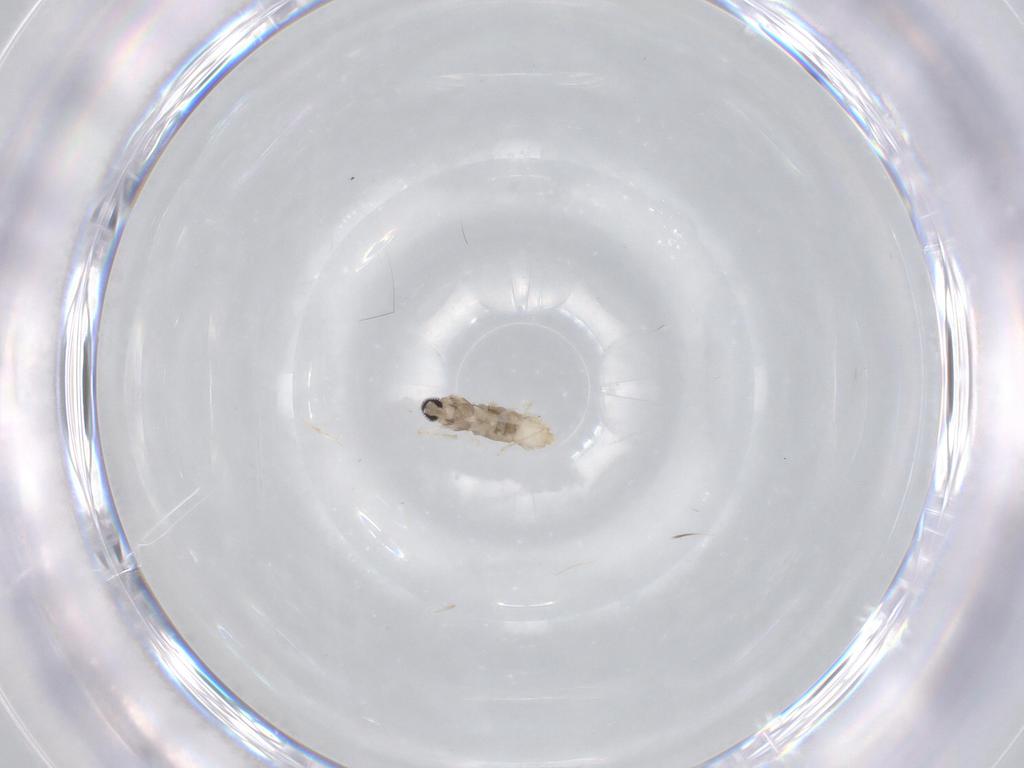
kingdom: Animalia
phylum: Arthropoda
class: Insecta
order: Diptera
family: Cecidomyiidae
